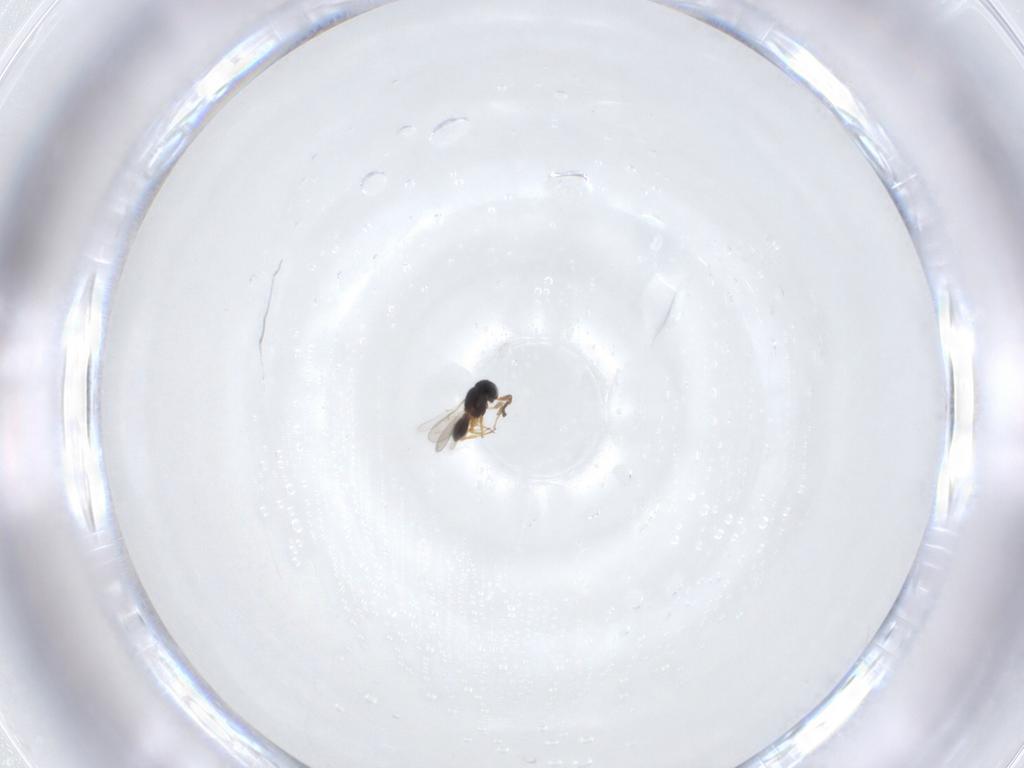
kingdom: Animalia
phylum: Arthropoda
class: Insecta
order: Hymenoptera
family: Scelionidae
